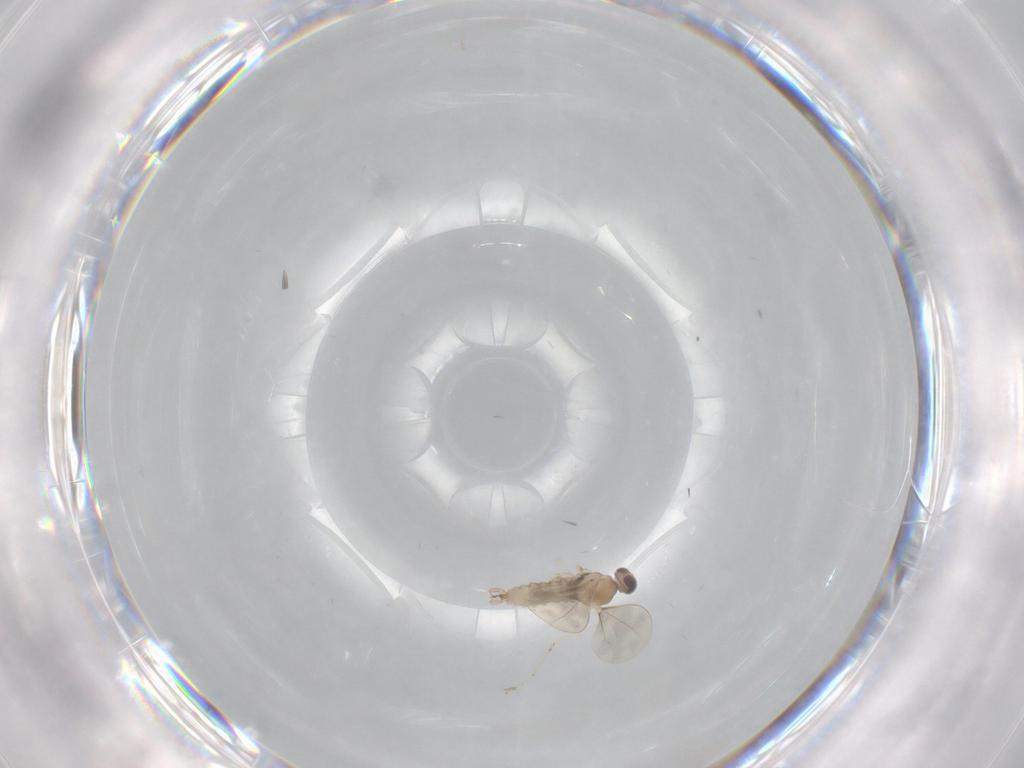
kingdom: Animalia
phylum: Arthropoda
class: Insecta
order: Diptera
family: Cecidomyiidae
